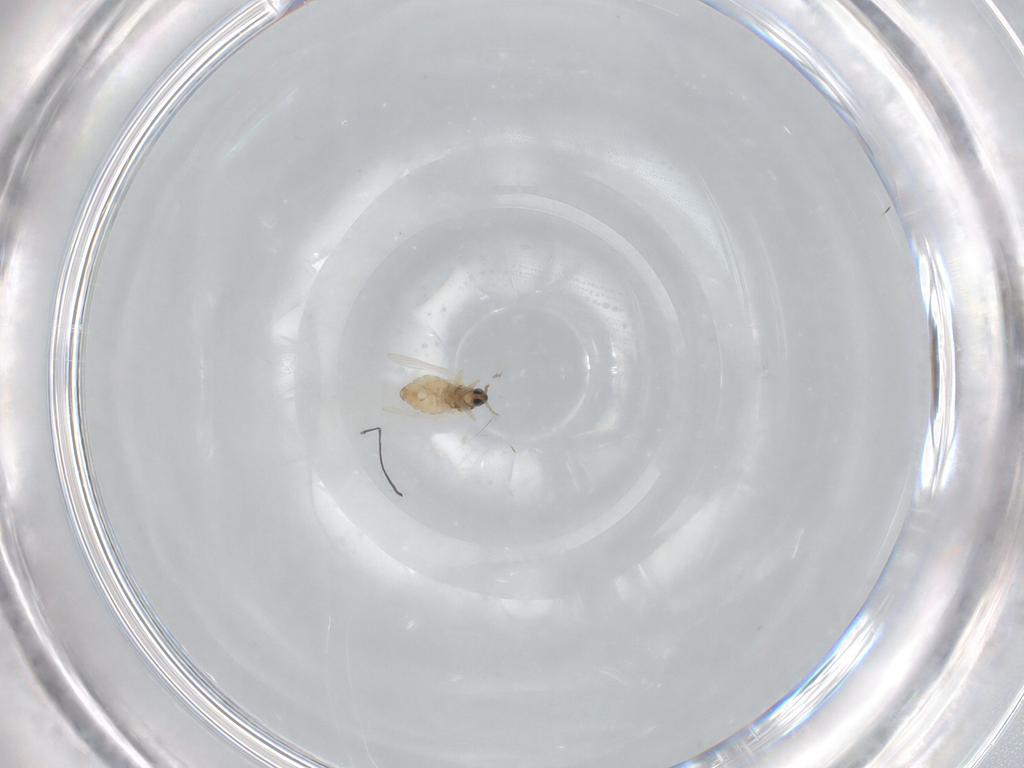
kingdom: Animalia
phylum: Arthropoda
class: Insecta
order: Diptera
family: Cecidomyiidae
